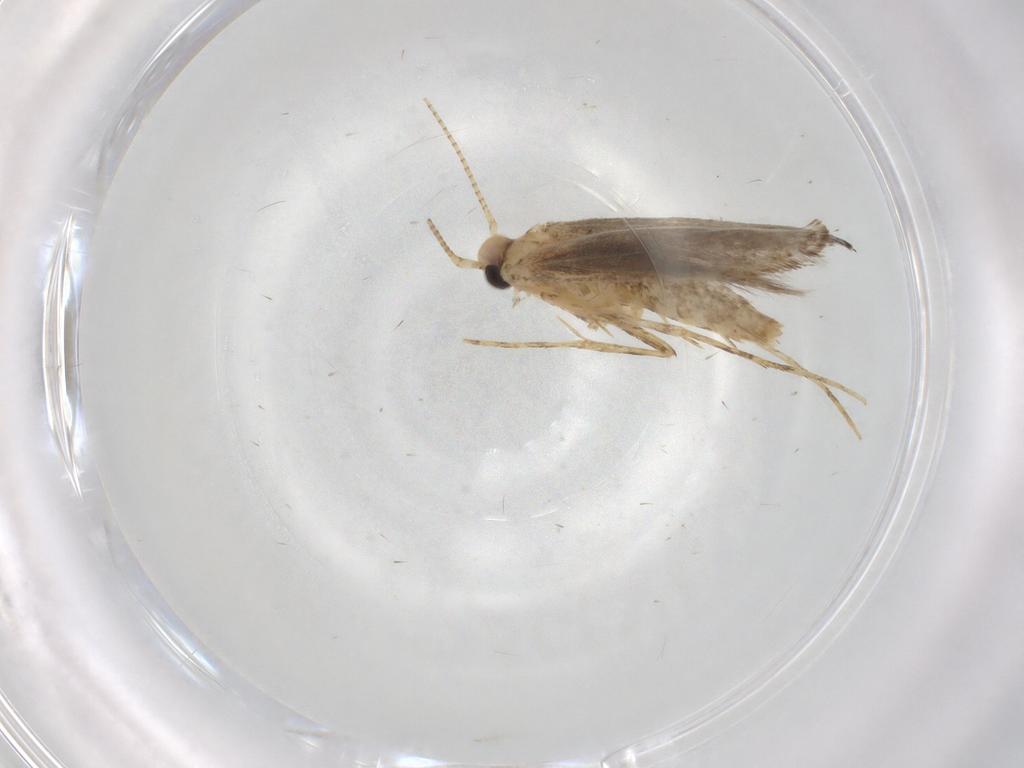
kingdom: Animalia
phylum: Arthropoda
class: Insecta
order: Lepidoptera
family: Gracillariidae
